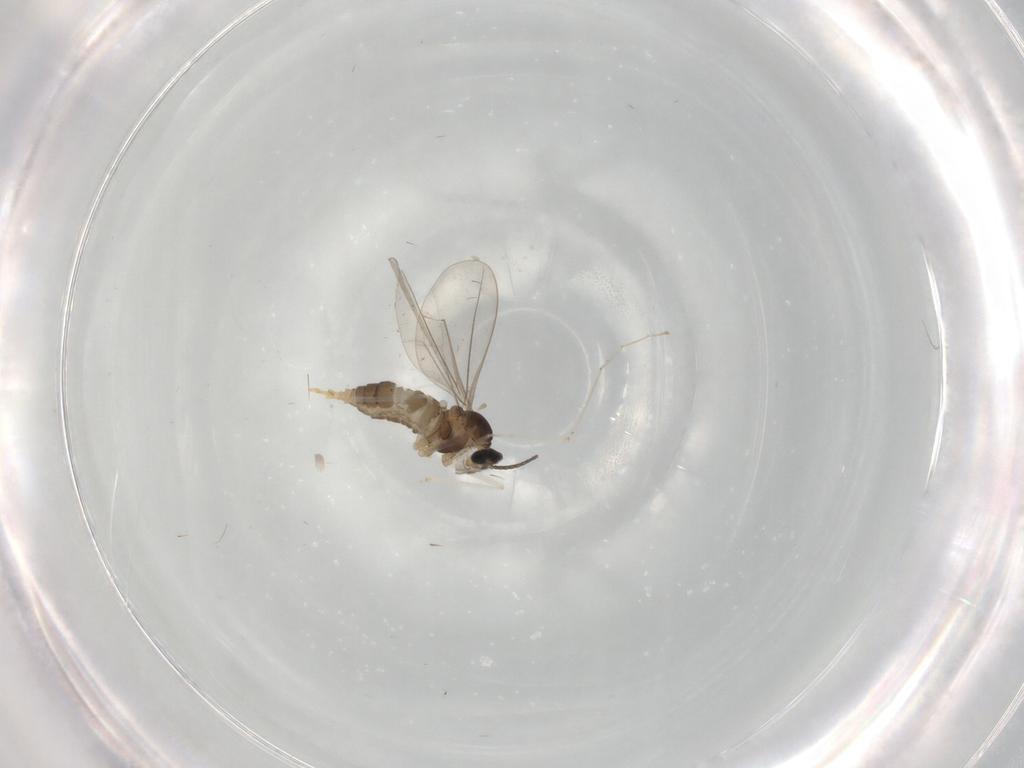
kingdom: Animalia
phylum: Arthropoda
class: Insecta
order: Diptera
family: Cecidomyiidae
